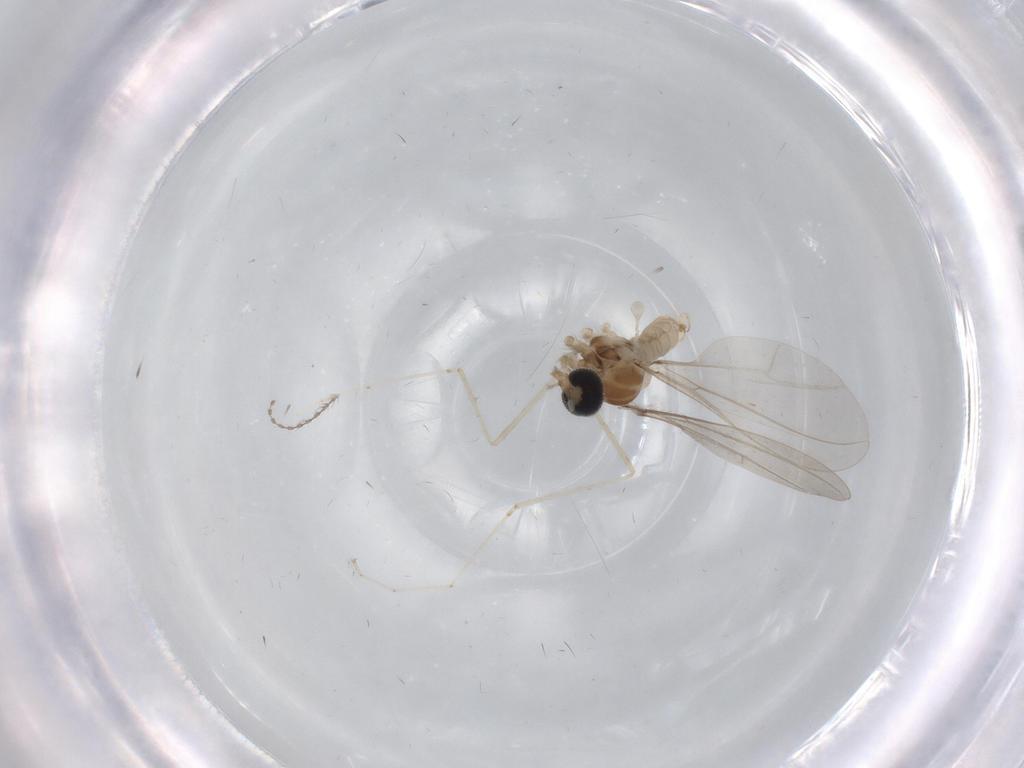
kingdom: Animalia
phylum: Arthropoda
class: Insecta
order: Diptera
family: Cecidomyiidae
